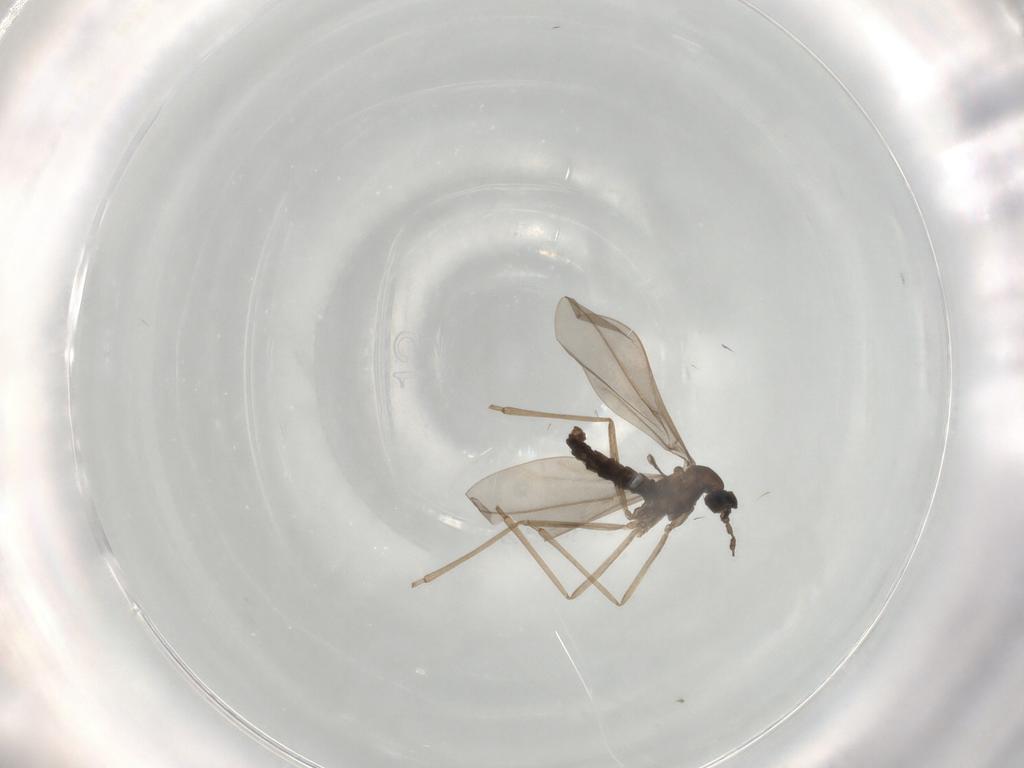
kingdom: Animalia
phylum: Arthropoda
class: Insecta
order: Diptera
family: Cecidomyiidae
